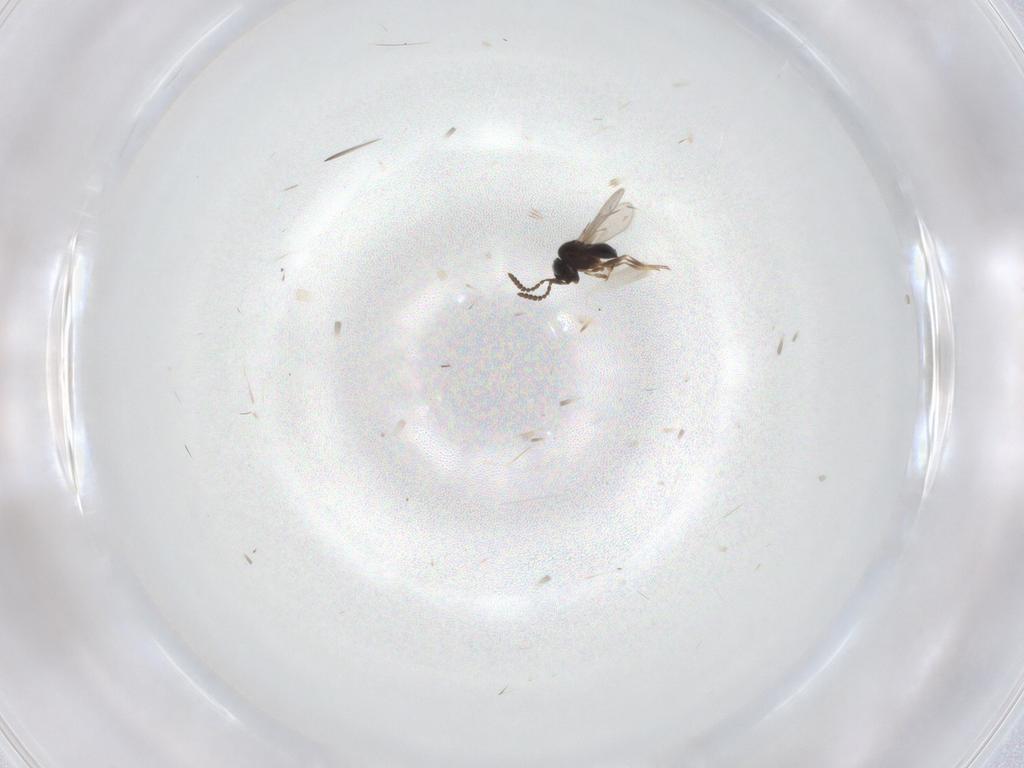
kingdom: Animalia
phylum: Arthropoda
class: Insecta
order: Hymenoptera
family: Scelionidae
